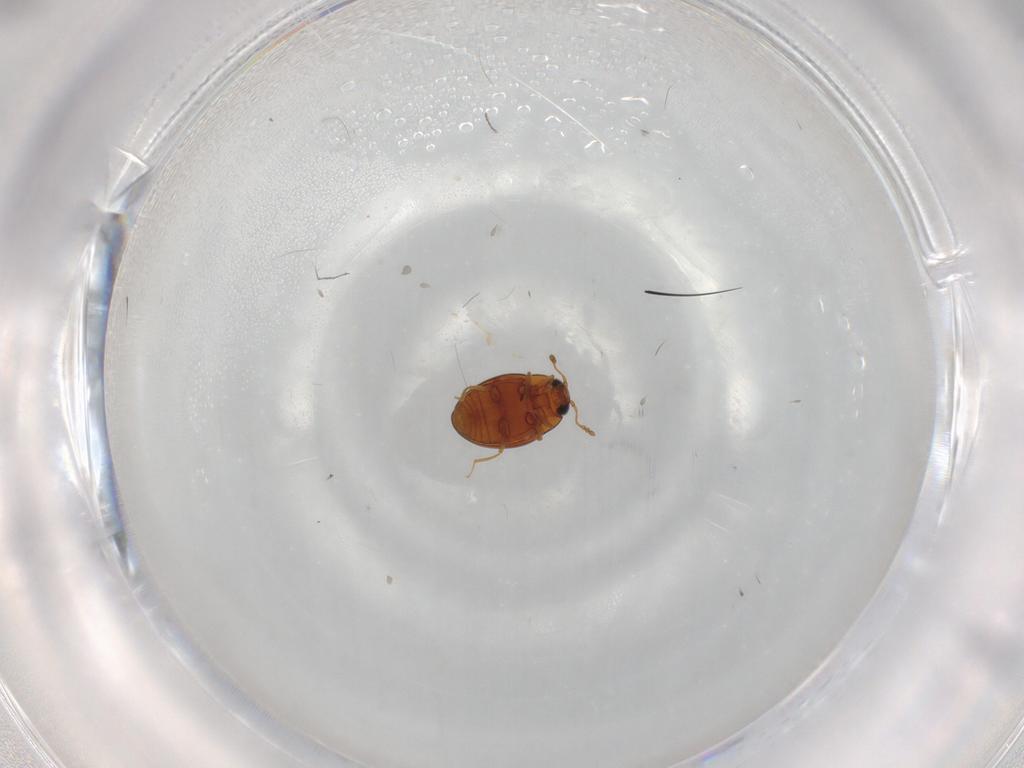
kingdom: Animalia
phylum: Arthropoda
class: Insecta
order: Coleoptera
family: Cryptophagidae
